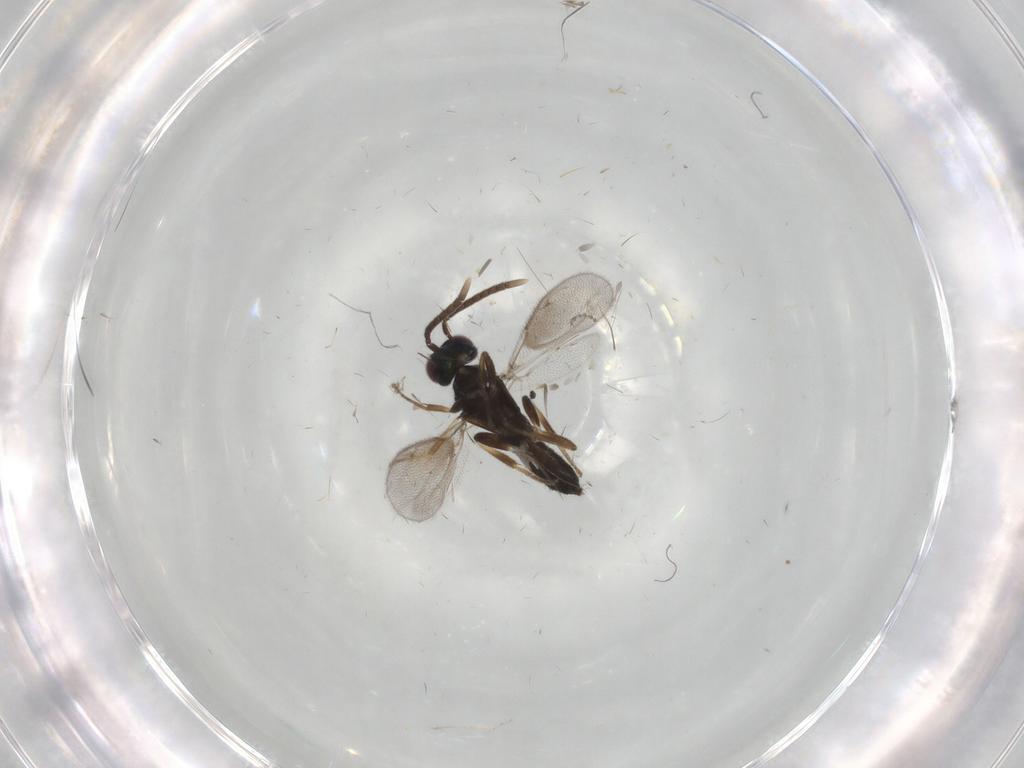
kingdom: Animalia
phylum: Arthropoda
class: Insecta
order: Hymenoptera
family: Eupelmidae
